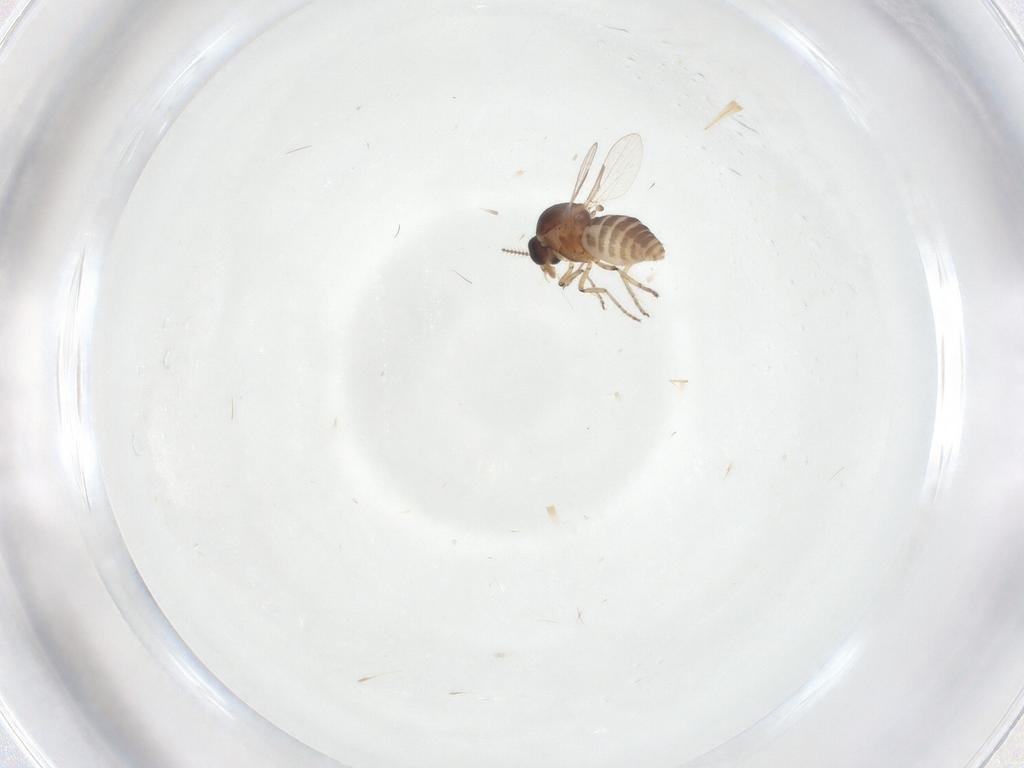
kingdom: Animalia
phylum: Arthropoda
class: Insecta
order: Diptera
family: Ceratopogonidae
